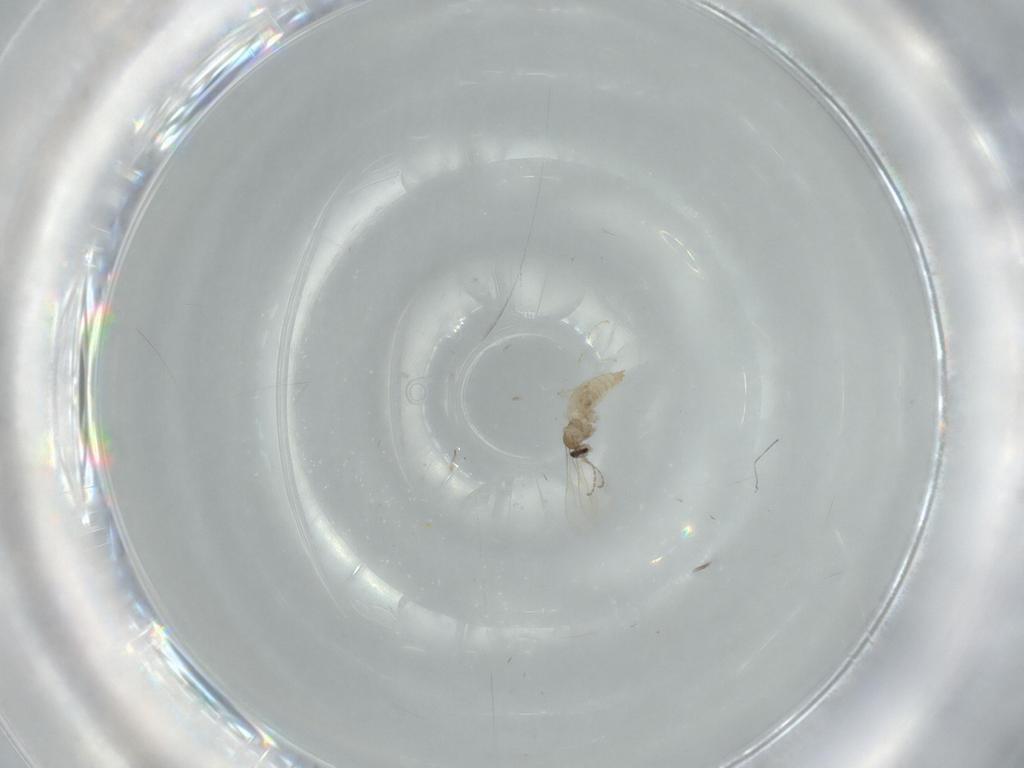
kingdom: Animalia
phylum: Arthropoda
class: Insecta
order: Diptera
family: Cecidomyiidae
